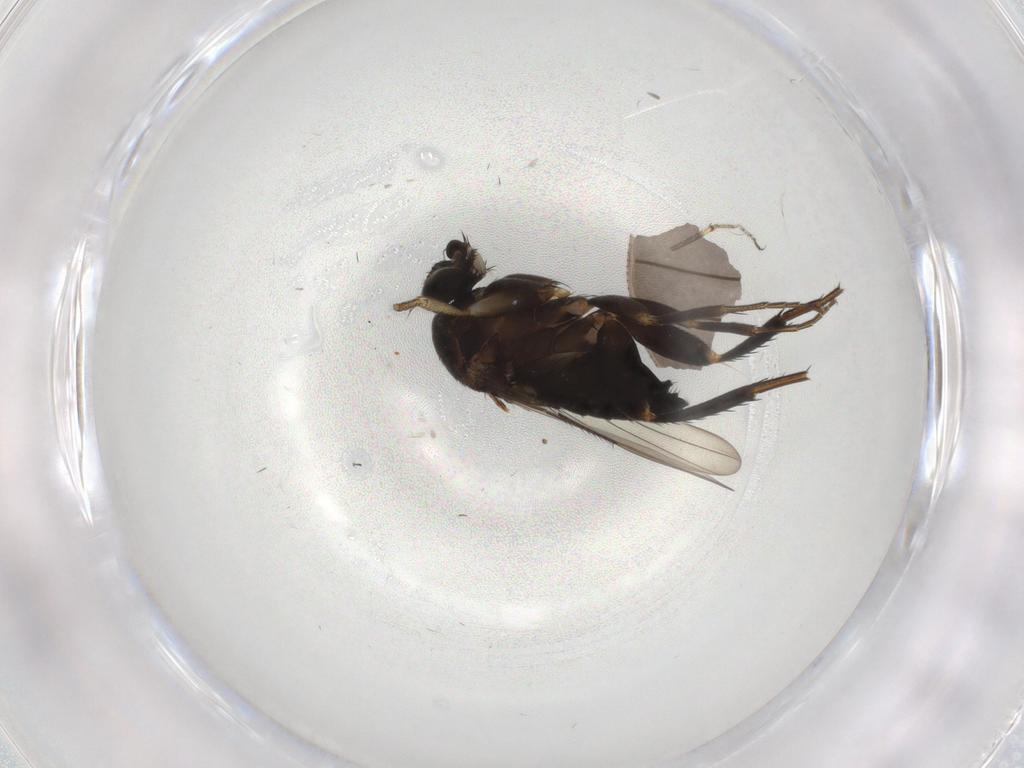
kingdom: Animalia
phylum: Arthropoda
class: Insecta
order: Diptera
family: Phoridae
